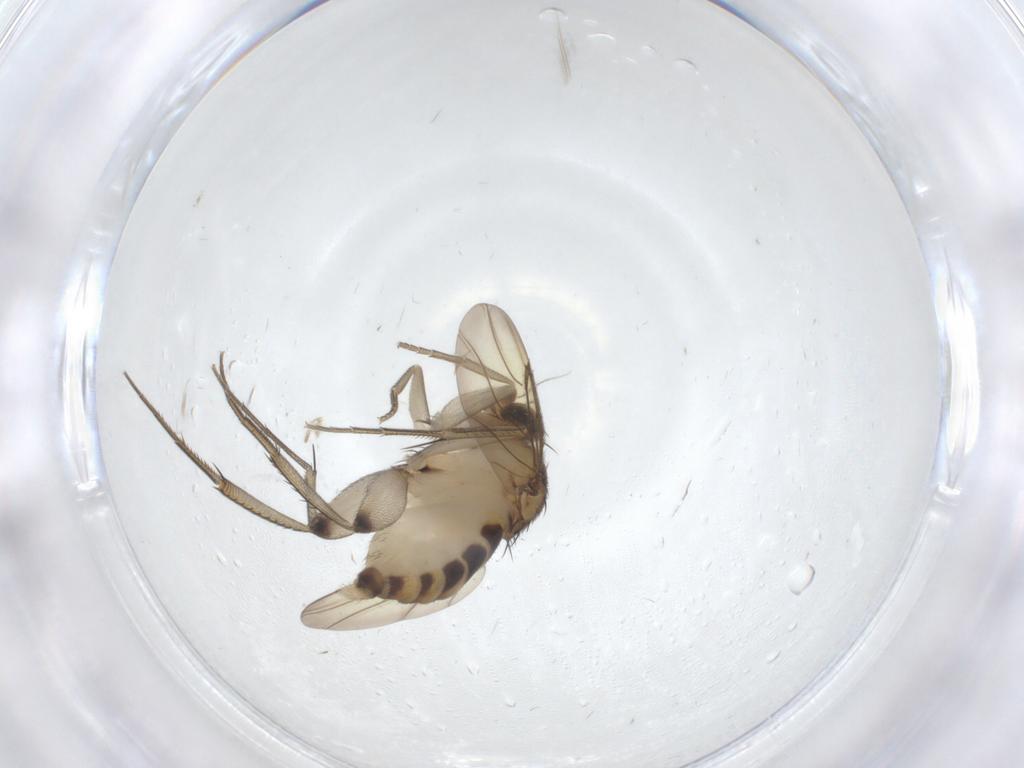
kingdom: Animalia
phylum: Arthropoda
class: Insecta
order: Diptera
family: Phoridae
